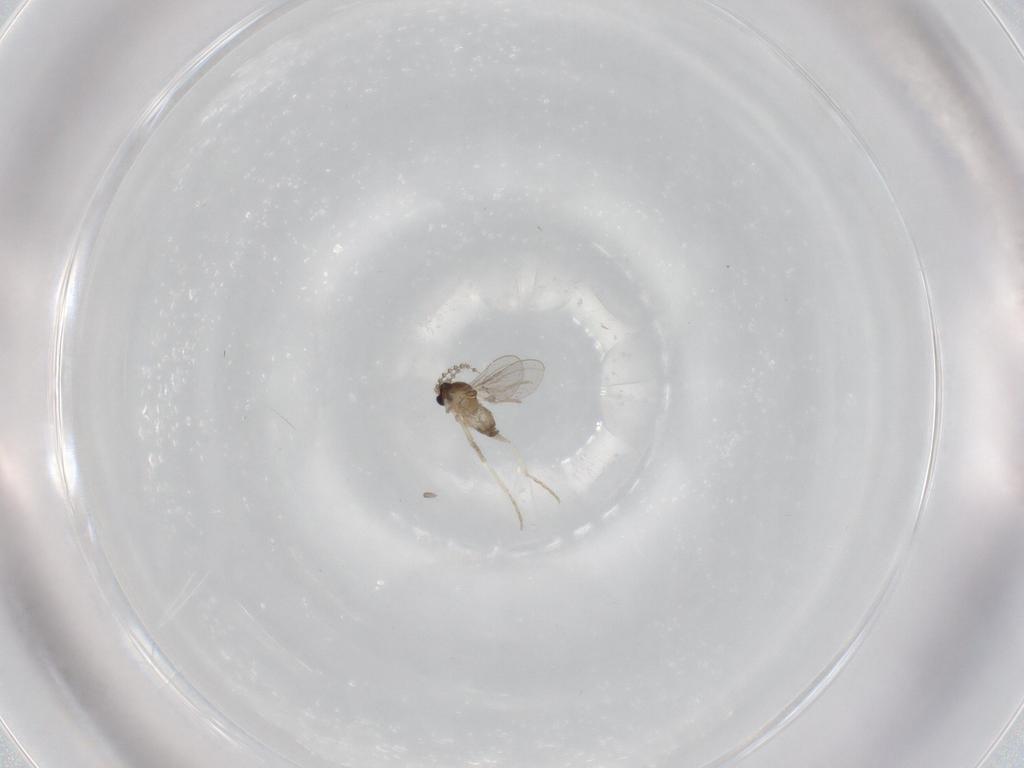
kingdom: Animalia
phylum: Arthropoda
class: Insecta
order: Diptera
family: Cecidomyiidae
